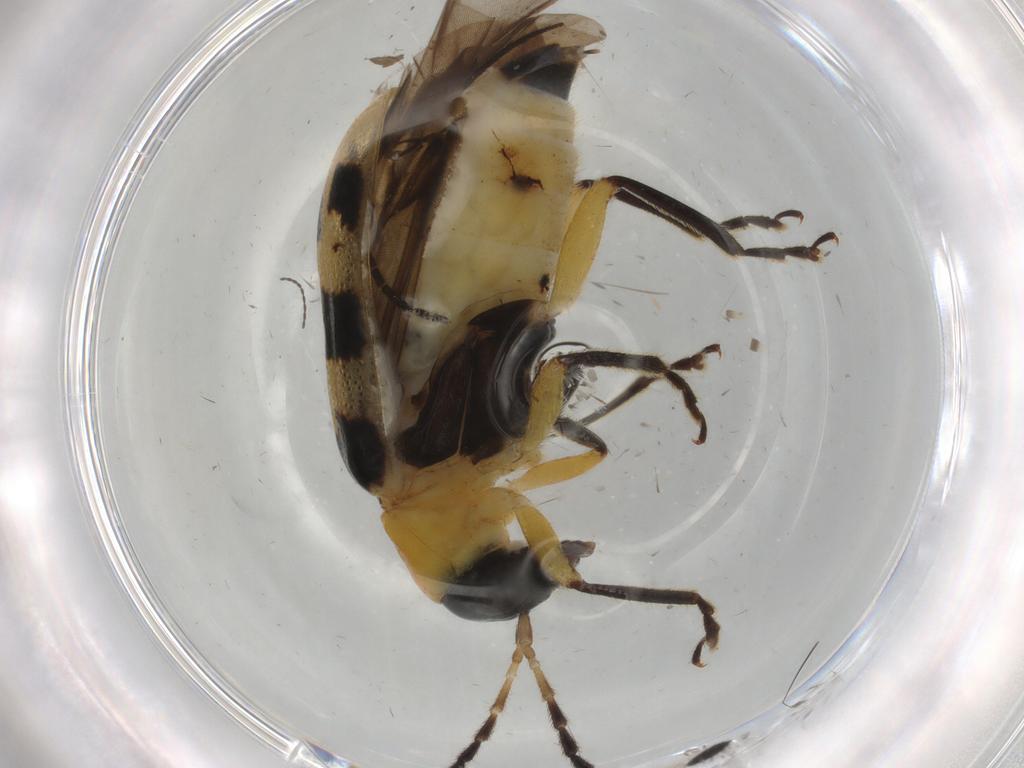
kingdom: Animalia
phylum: Arthropoda
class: Insecta
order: Coleoptera
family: Chrysomelidae
